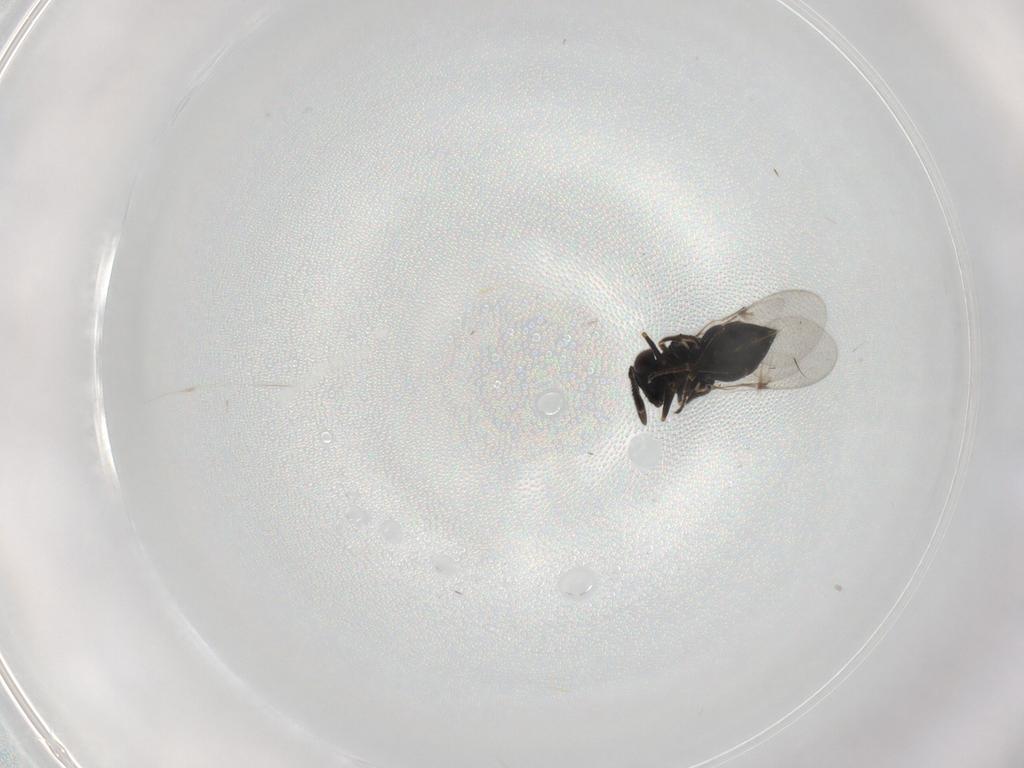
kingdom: Animalia
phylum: Arthropoda
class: Insecta
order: Hymenoptera
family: Encyrtidae
